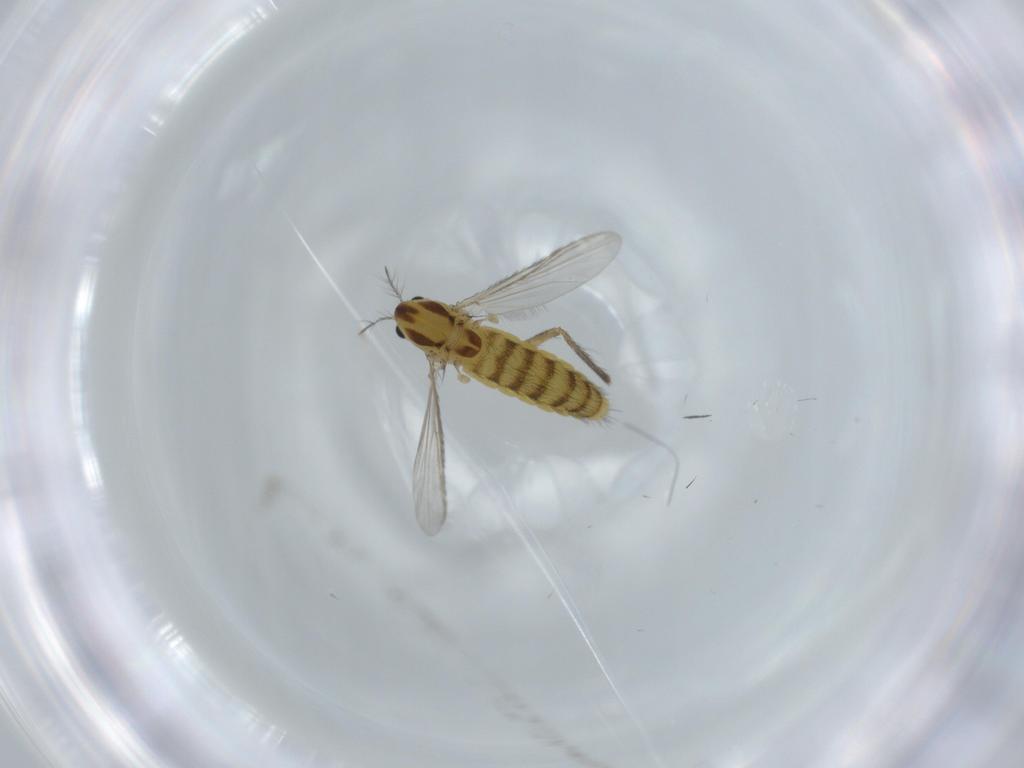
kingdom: Animalia
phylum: Arthropoda
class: Insecta
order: Diptera
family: Chironomidae
